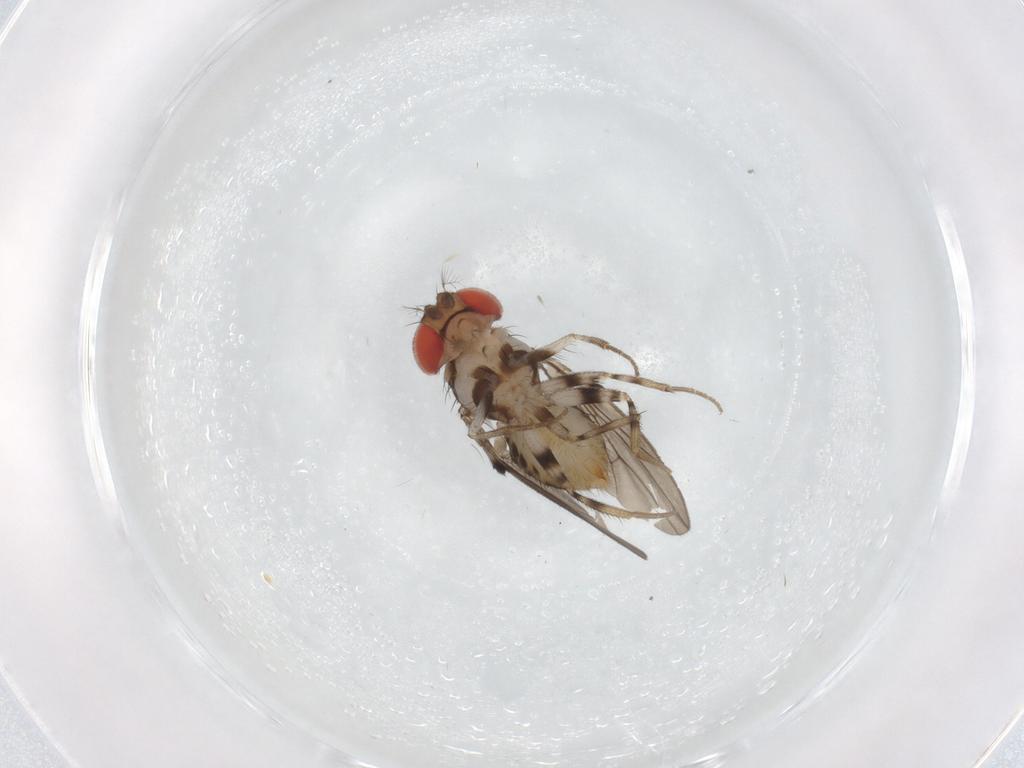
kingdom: Animalia
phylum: Arthropoda
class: Insecta
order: Diptera
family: Drosophilidae
